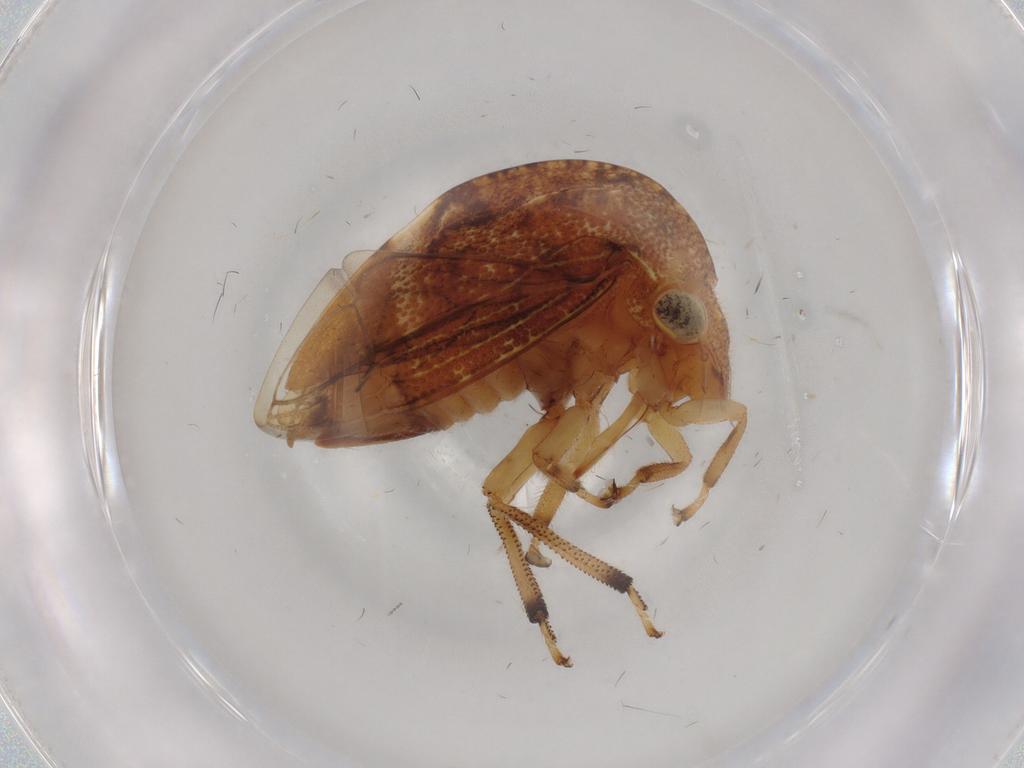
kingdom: Animalia
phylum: Arthropoda
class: Insecta
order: Hemiptera
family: Membracidae
